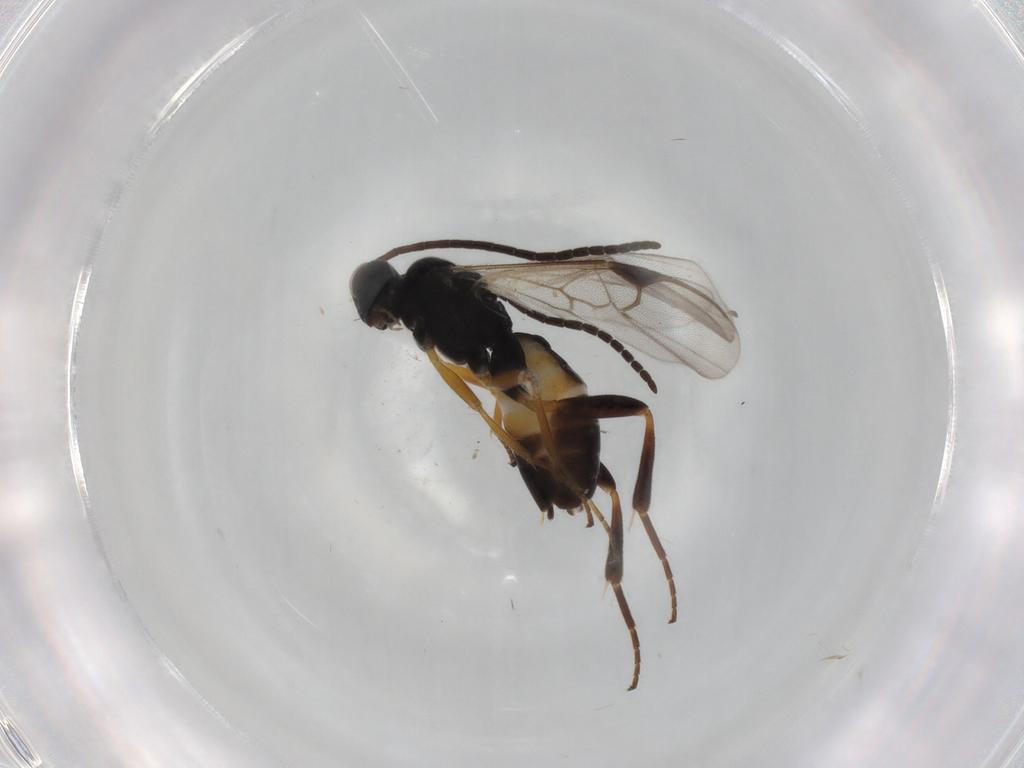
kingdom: Animalia
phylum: Arthropoda
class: Insecta
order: Hymenoptera
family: Braconidae
